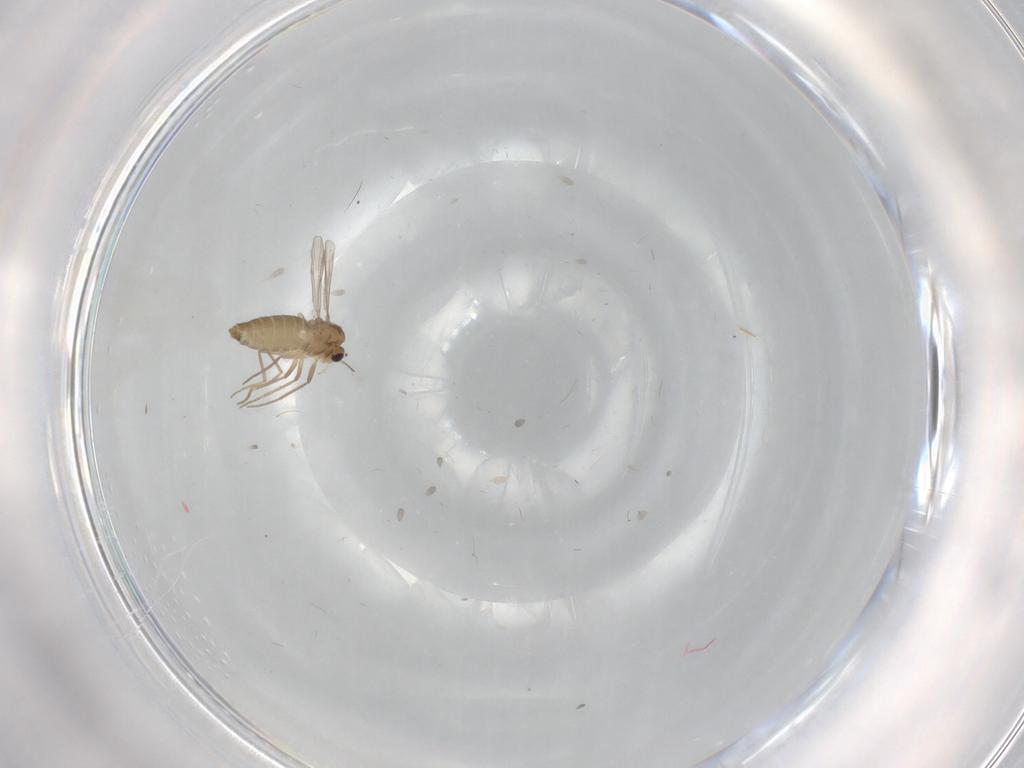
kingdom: Animalia
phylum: Arthropoda
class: Insecta
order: Diptera
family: Chironomidae
